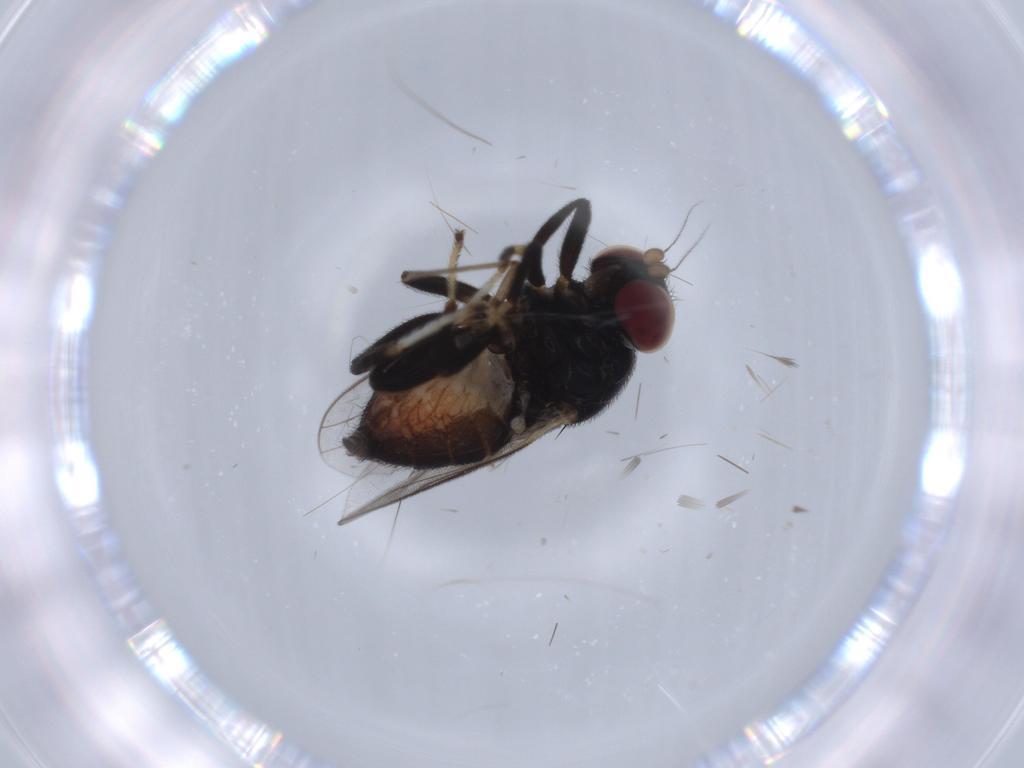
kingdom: Animalia
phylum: Arthropoda
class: Insecta
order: Diptera
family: Chloropidae
